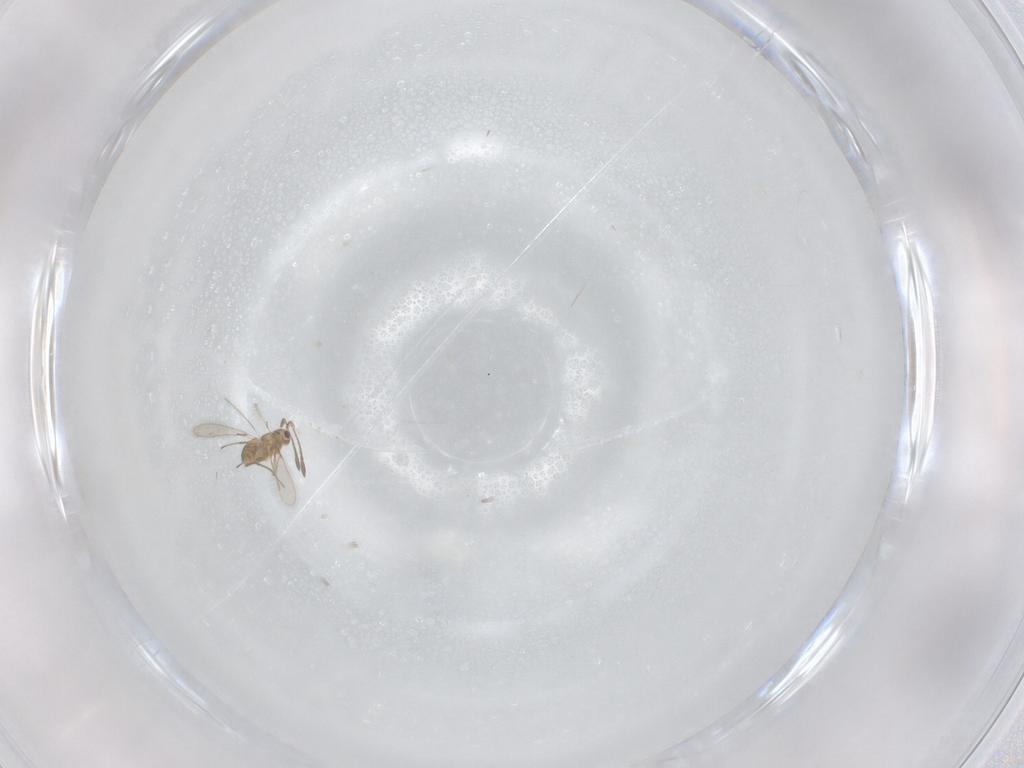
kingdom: Animalia
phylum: Arthropoda
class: Insecta
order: Hymenoptera
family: Mymaridae
